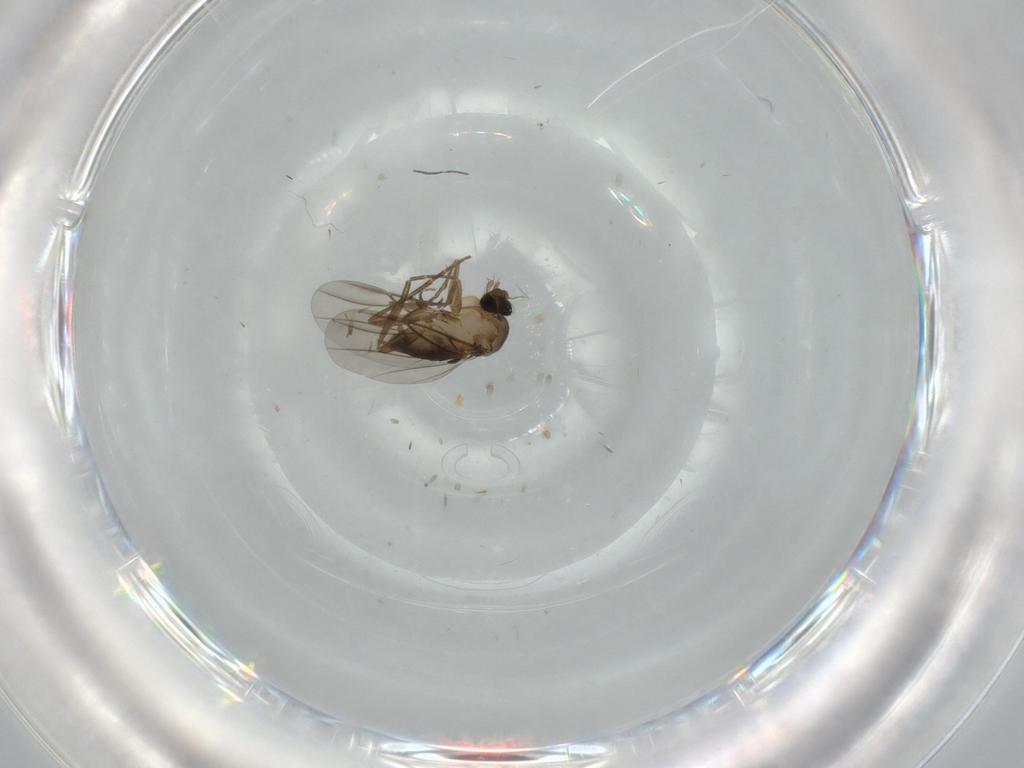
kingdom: Animalia
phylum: Arthropoda
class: Insecta
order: Diptera
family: Phoridae
